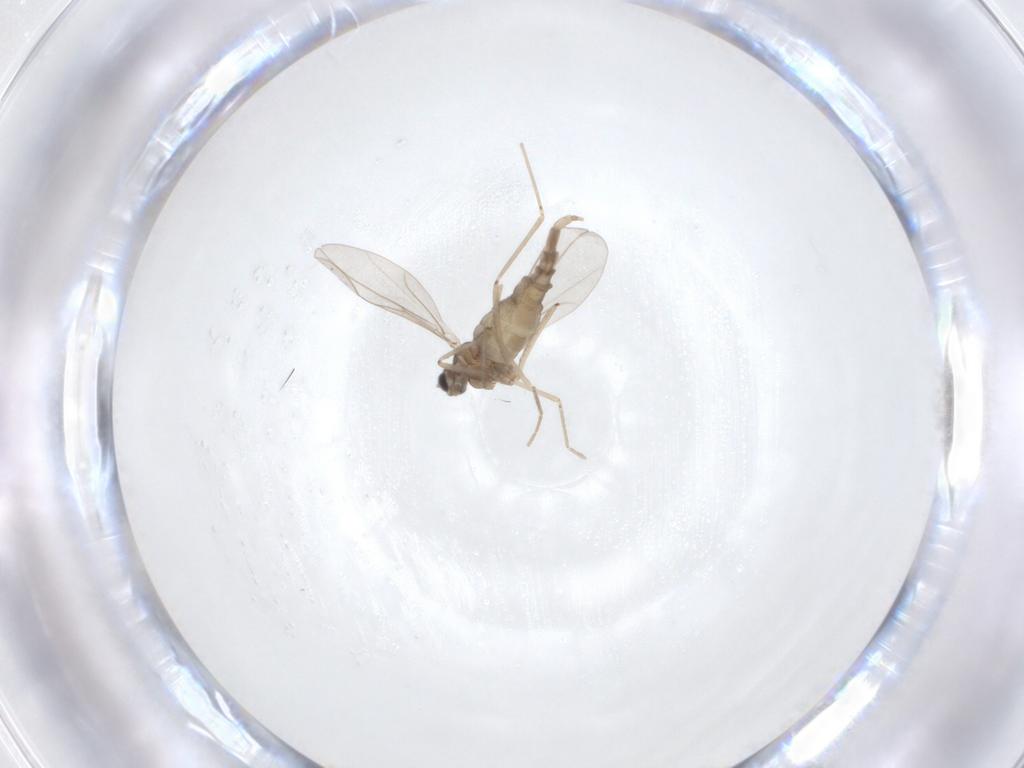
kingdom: Animalia
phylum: Arthropoda
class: Insecta
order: Diptera
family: Cecidomyiidae
